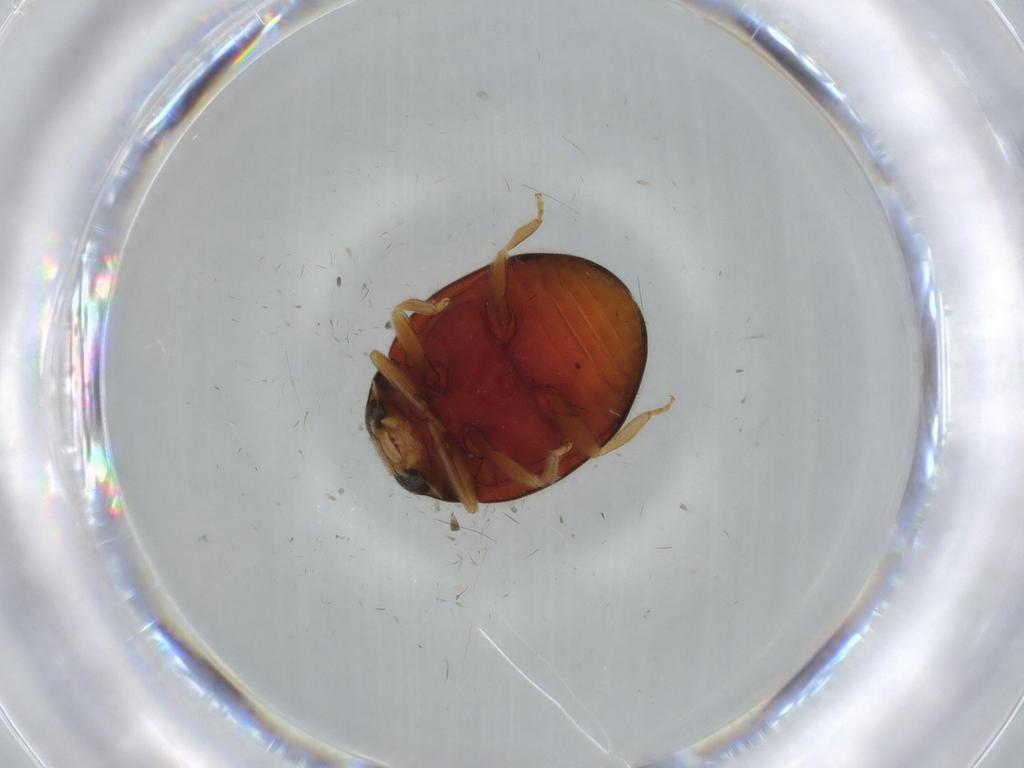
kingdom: Animalia
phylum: Arthropoda
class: Insecta
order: Coleoptera
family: Coccinellidae
